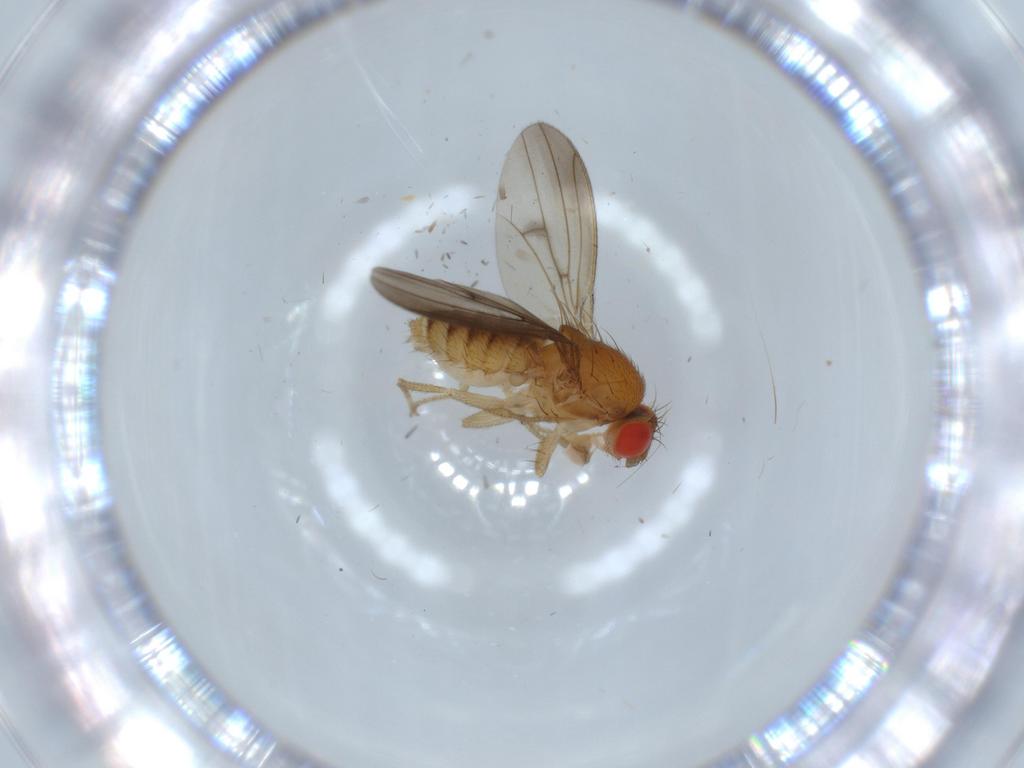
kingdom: Animalia
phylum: Arthropoda
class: Insecta
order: Diptera
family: Drosophilidae
